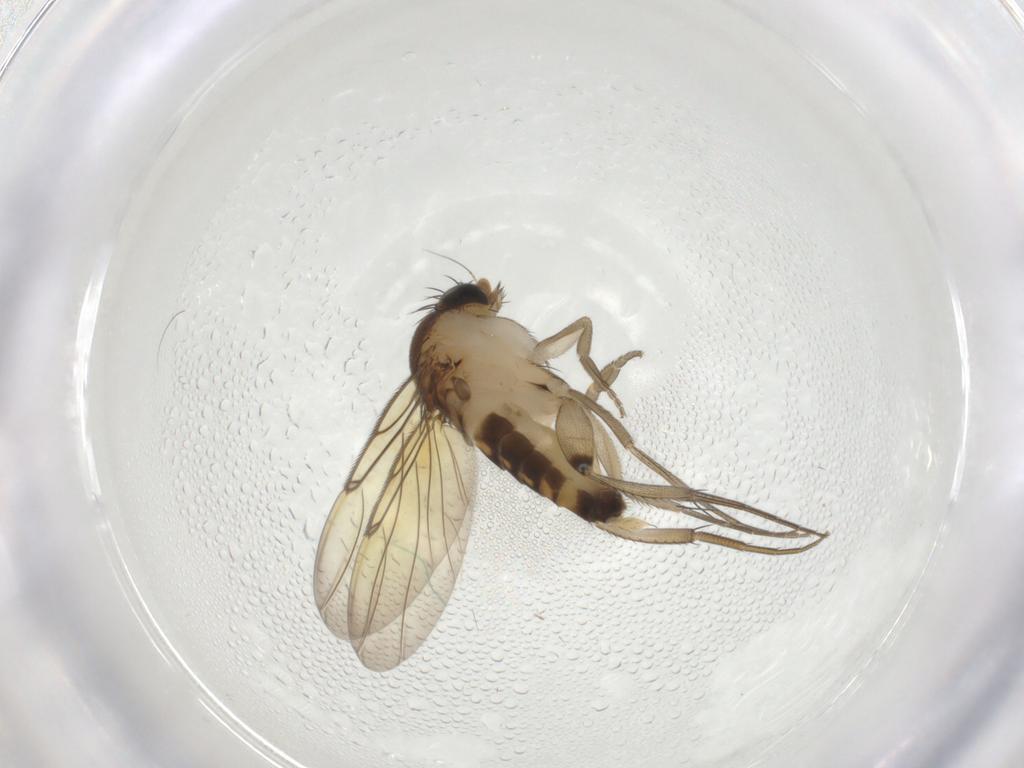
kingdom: Animalia
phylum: Arthropoda
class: Insecta
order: Diptera
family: Phoridae
